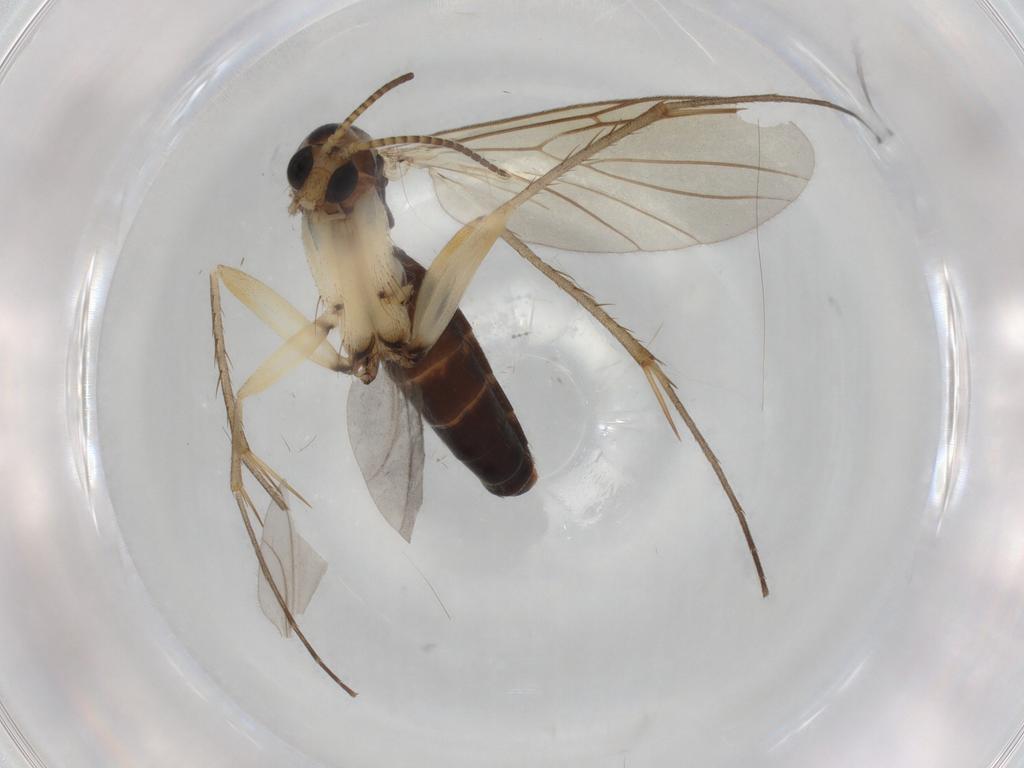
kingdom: Animalia
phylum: Arthropoda
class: Insecta
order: Diptera
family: Mycetophilidae
